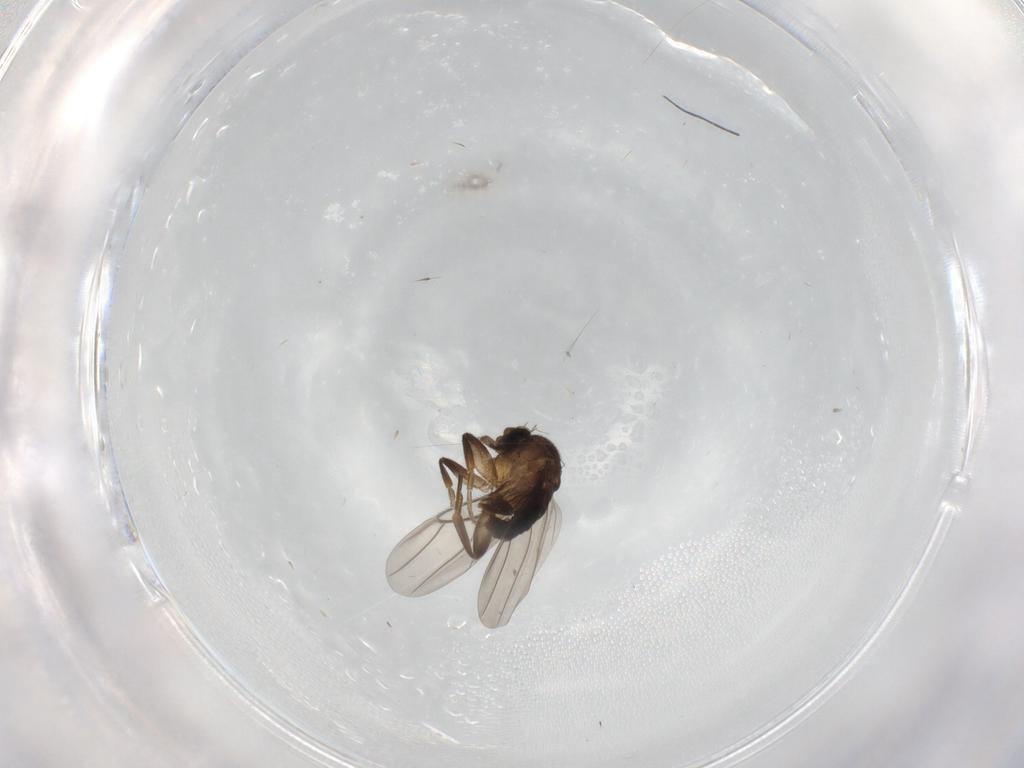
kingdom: Animalia
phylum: Arthropoda
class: Insecta
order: Diptera
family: Phoridae
